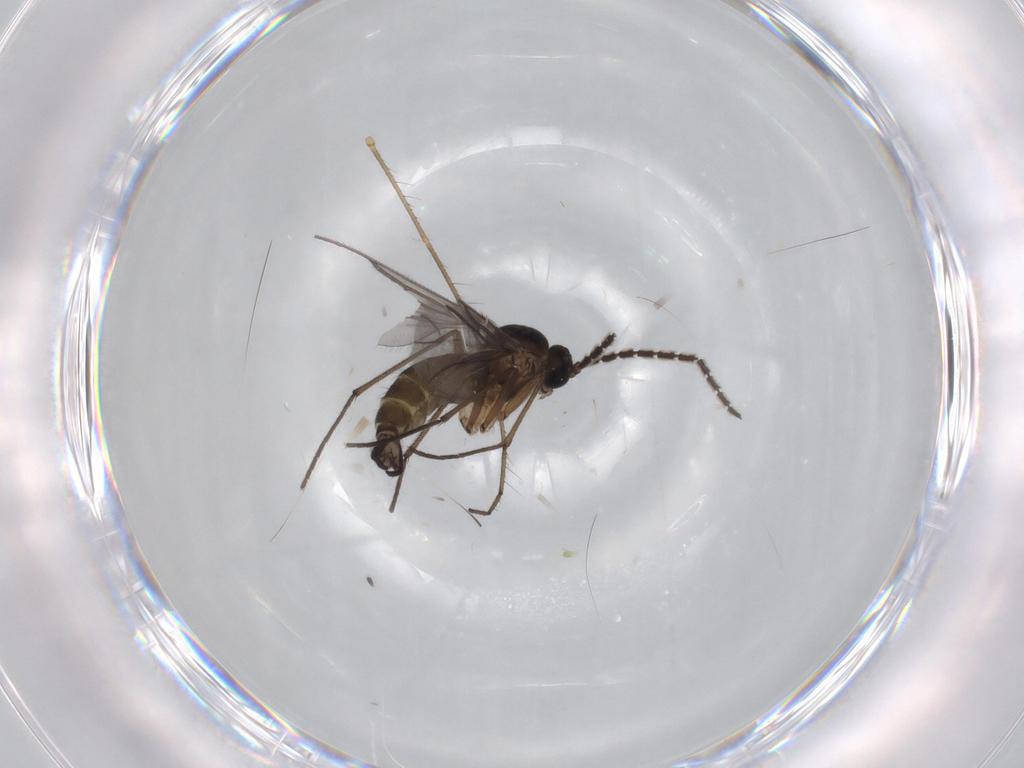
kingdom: Animalia
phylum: Arthropoda
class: Insecta
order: Diptera
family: Limoniidae
